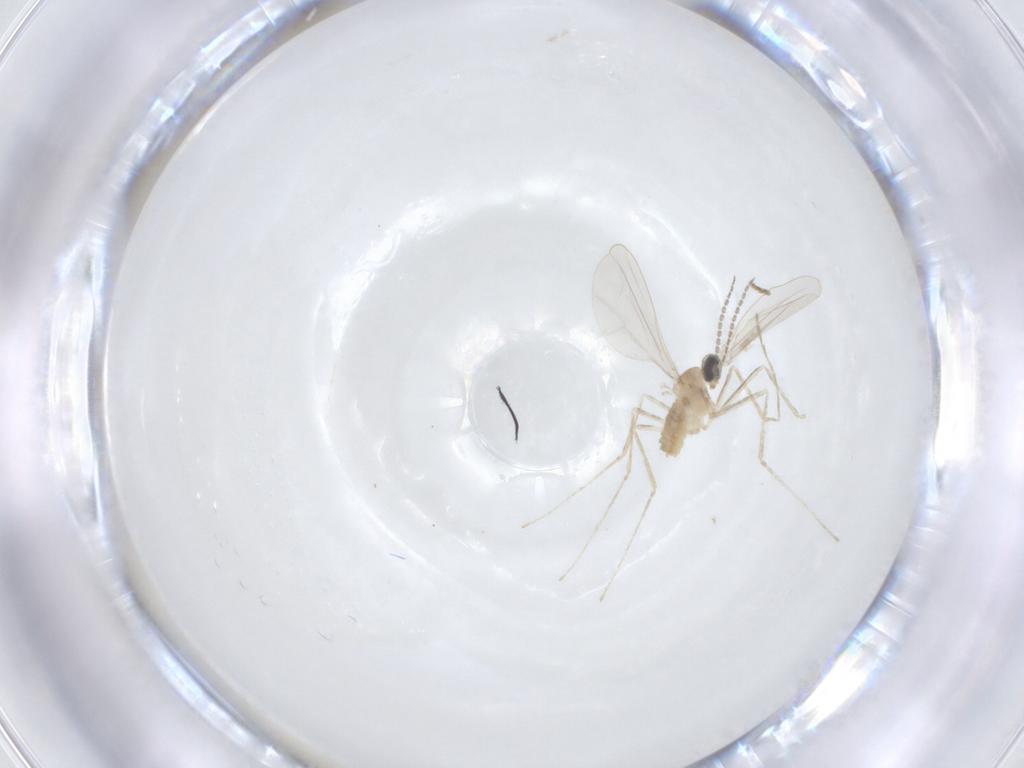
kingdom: Animalia
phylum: Arthropoda
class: Insecta
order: Diptera
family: Cecidomyiidae
